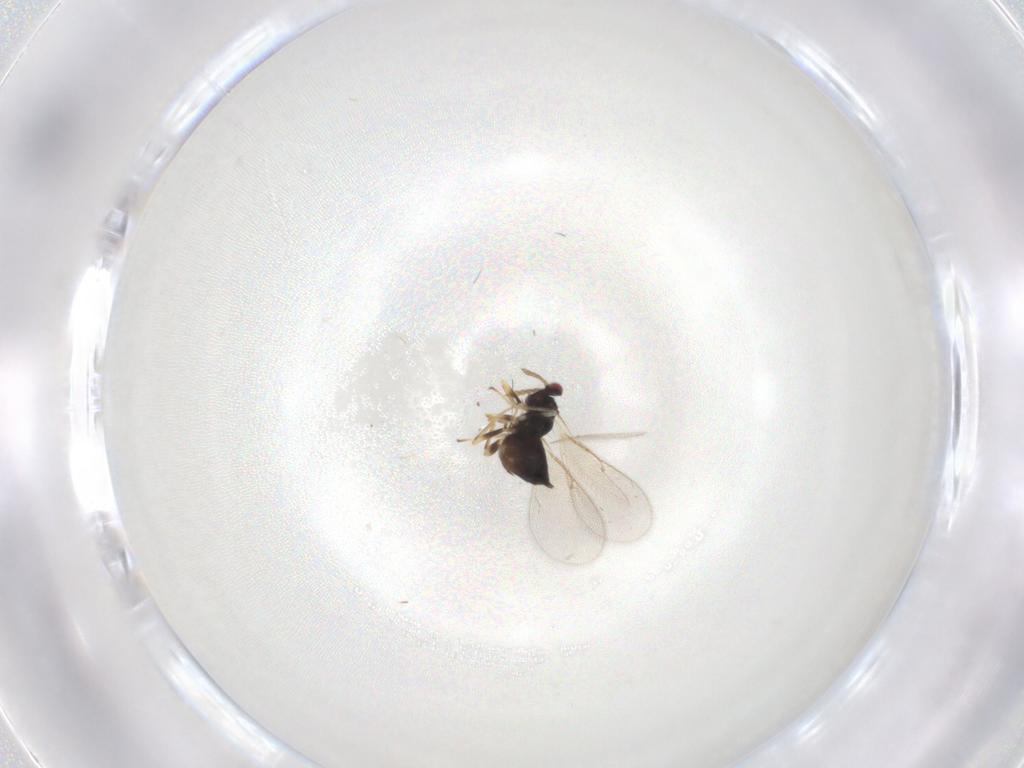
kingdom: Animalia
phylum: Arthropoda
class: Insecta
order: Hymenoptera
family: Eulophidae
